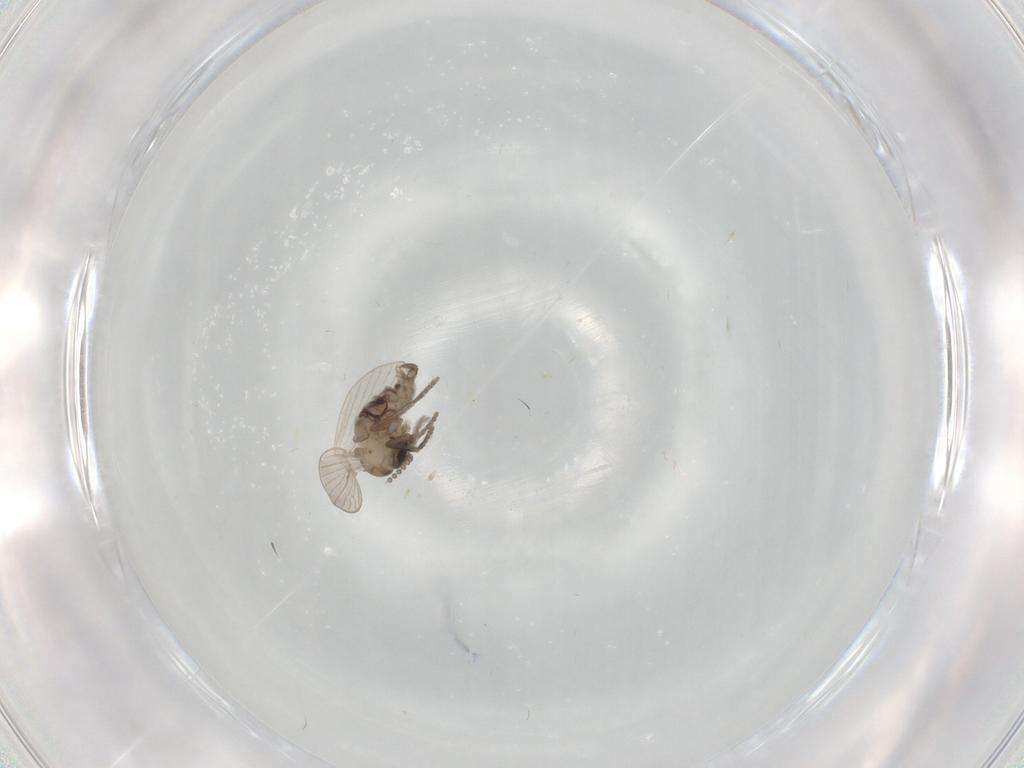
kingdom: Animalia
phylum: Arthropoda
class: Insecta
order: Diptera
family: Psychodidae
